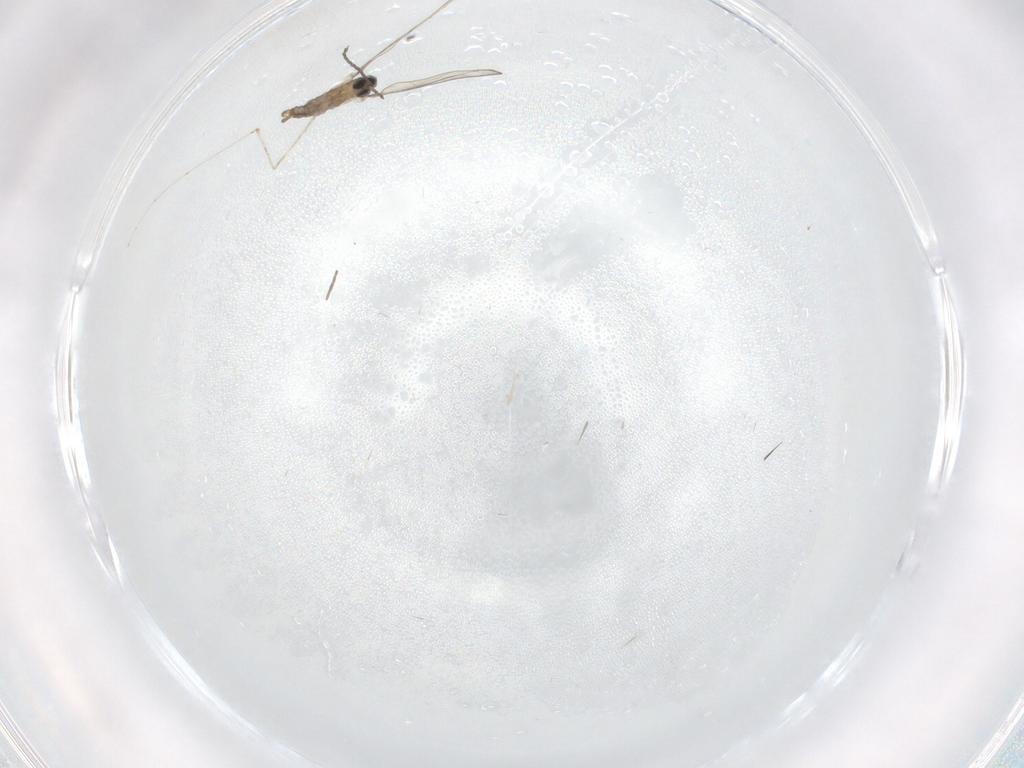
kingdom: Animalia
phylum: Arthropoda
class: Insecta
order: Diptera
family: Cecidomyiidae
